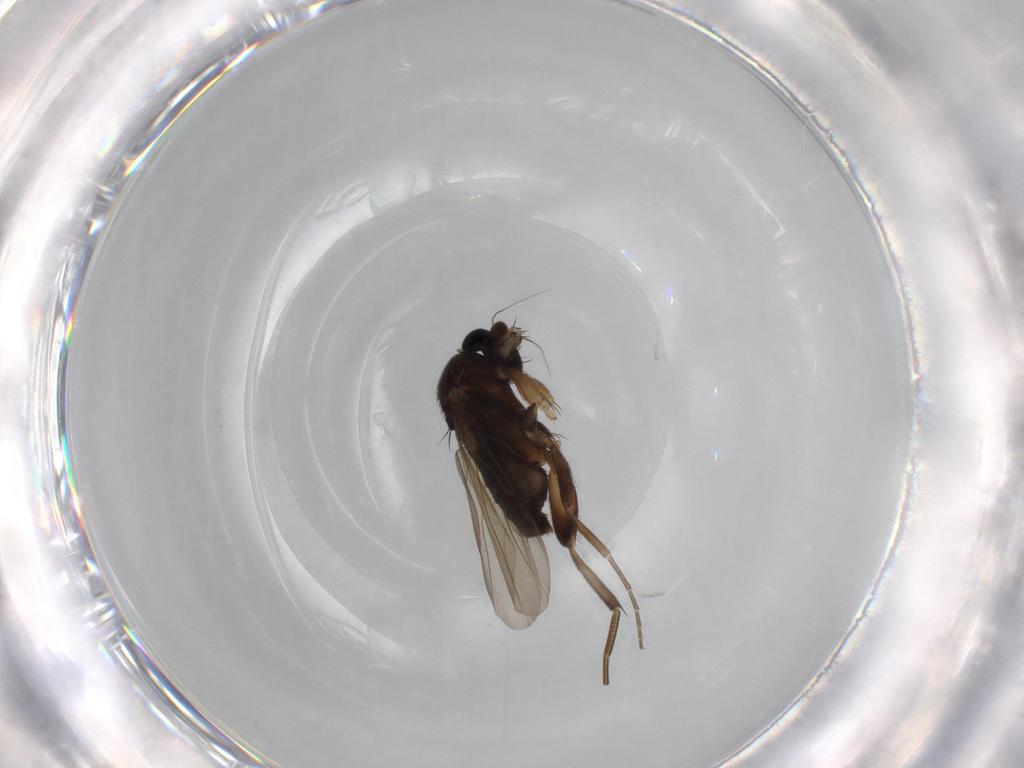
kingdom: Animalia
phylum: Arthropoda
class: Insecta
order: Diptera
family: Phoridae
